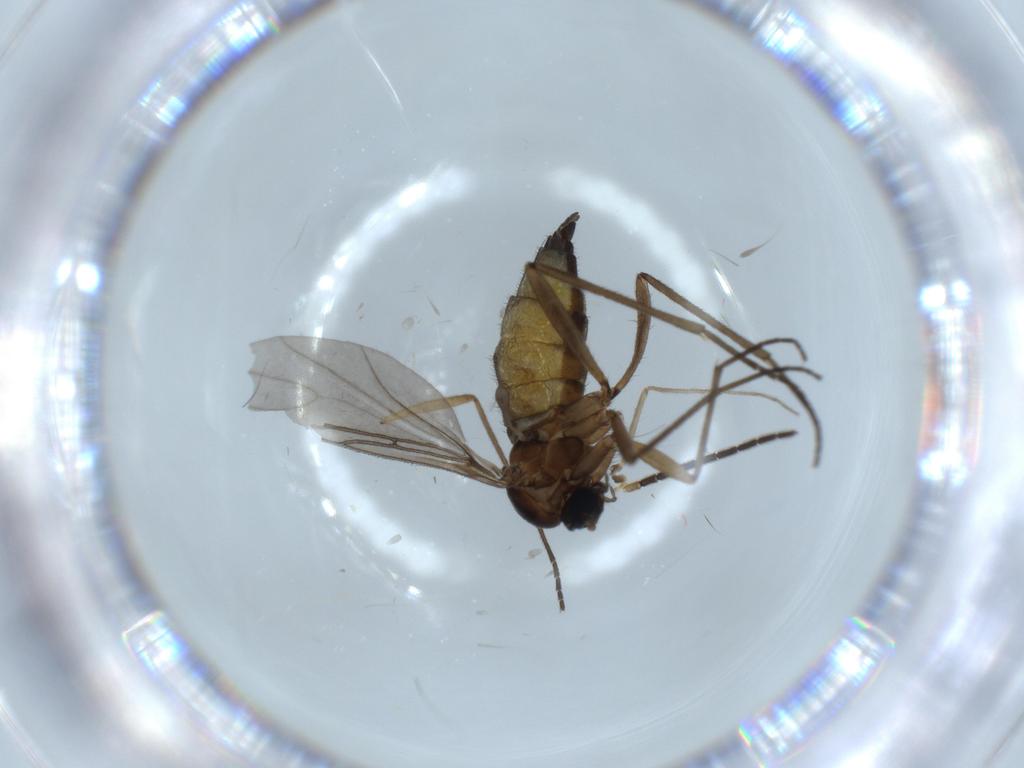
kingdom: Animalia
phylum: Arthropoda
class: Insecta
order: Diptera
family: Sciaridae
